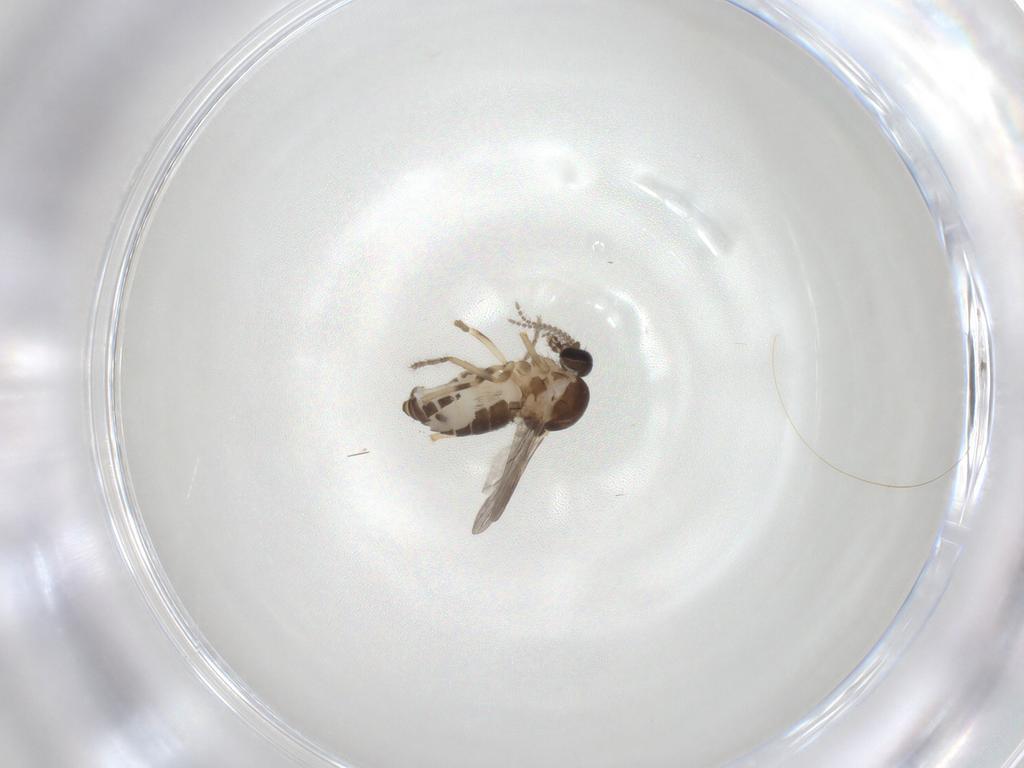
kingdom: Animalia
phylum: Arthropoda
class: Insecta
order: Diptera
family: Ceratopogonidae
